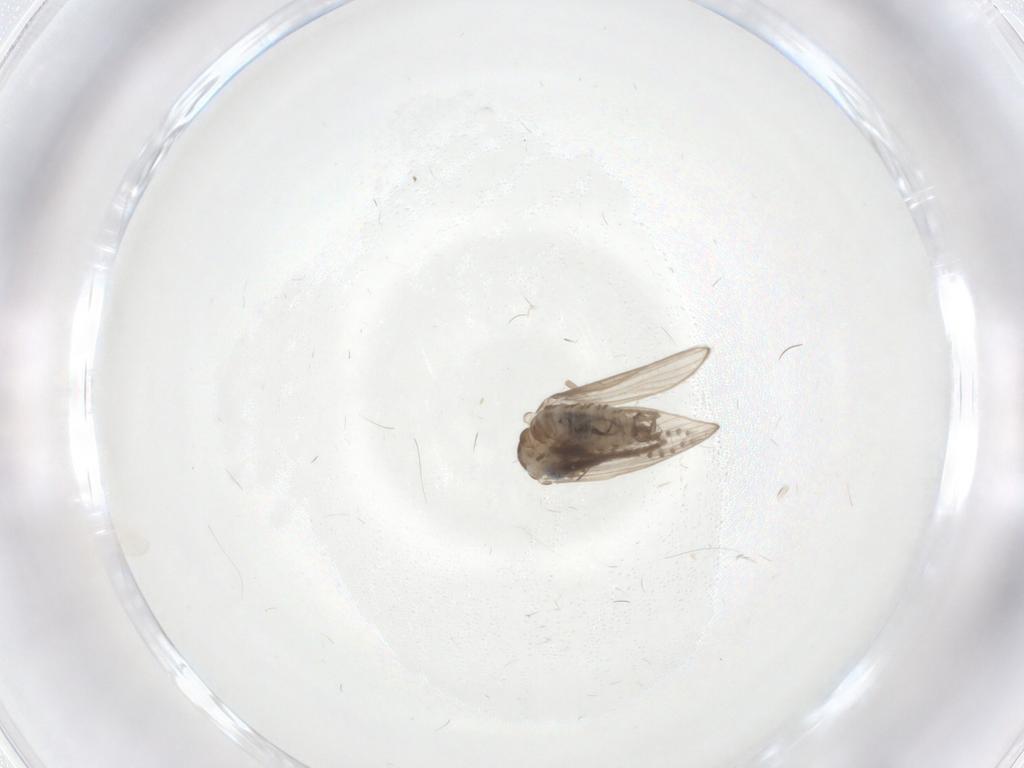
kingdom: Animalia
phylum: Arthropoda
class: Insecta
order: Diptera
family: Psychodidae
